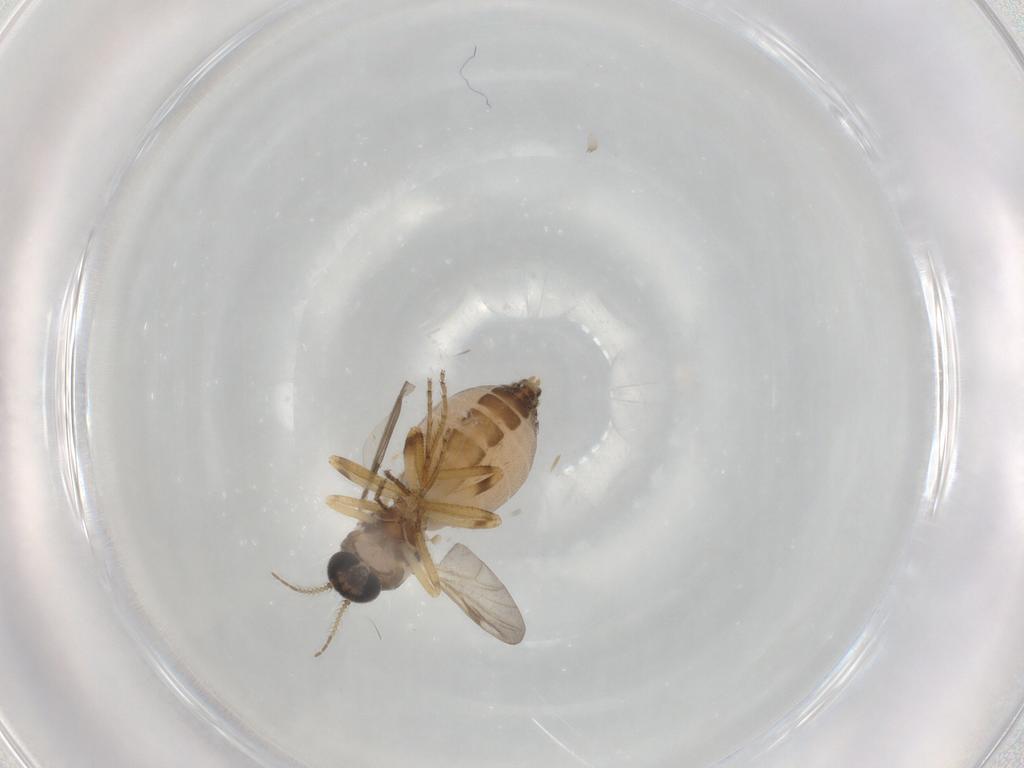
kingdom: Animalia
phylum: Arthropoda
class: Insecta
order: Diptera
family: Ceratopogonidae
